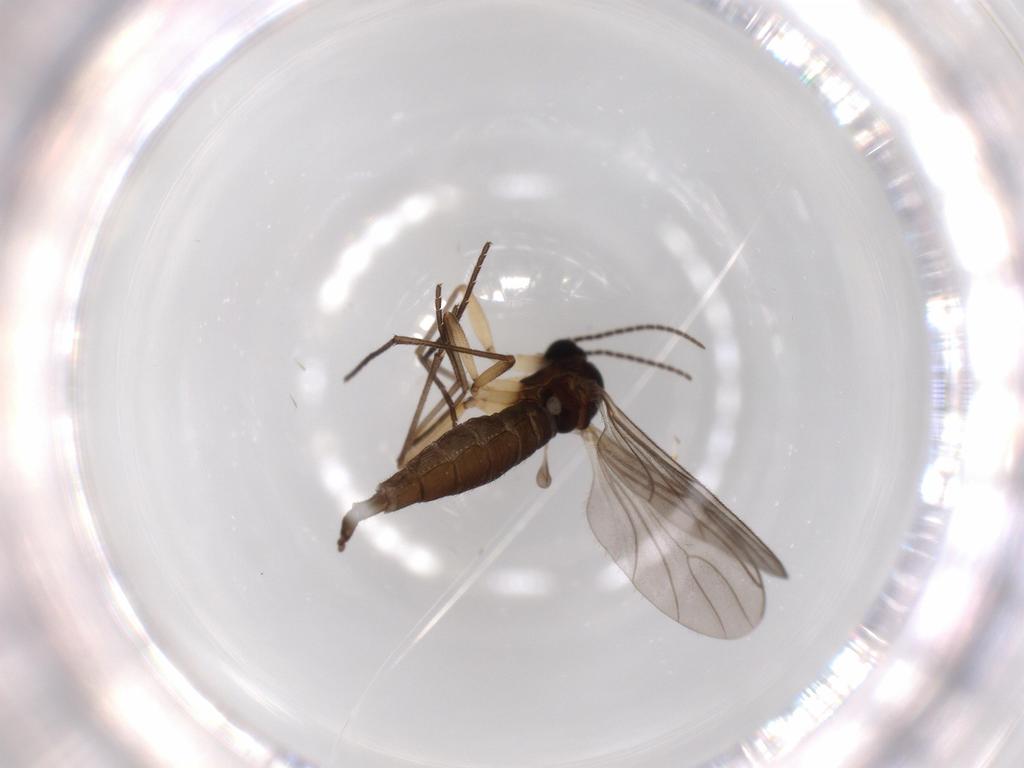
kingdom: Animalia
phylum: Arthropoda
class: Insecta
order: Diptera
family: Sciaridae
